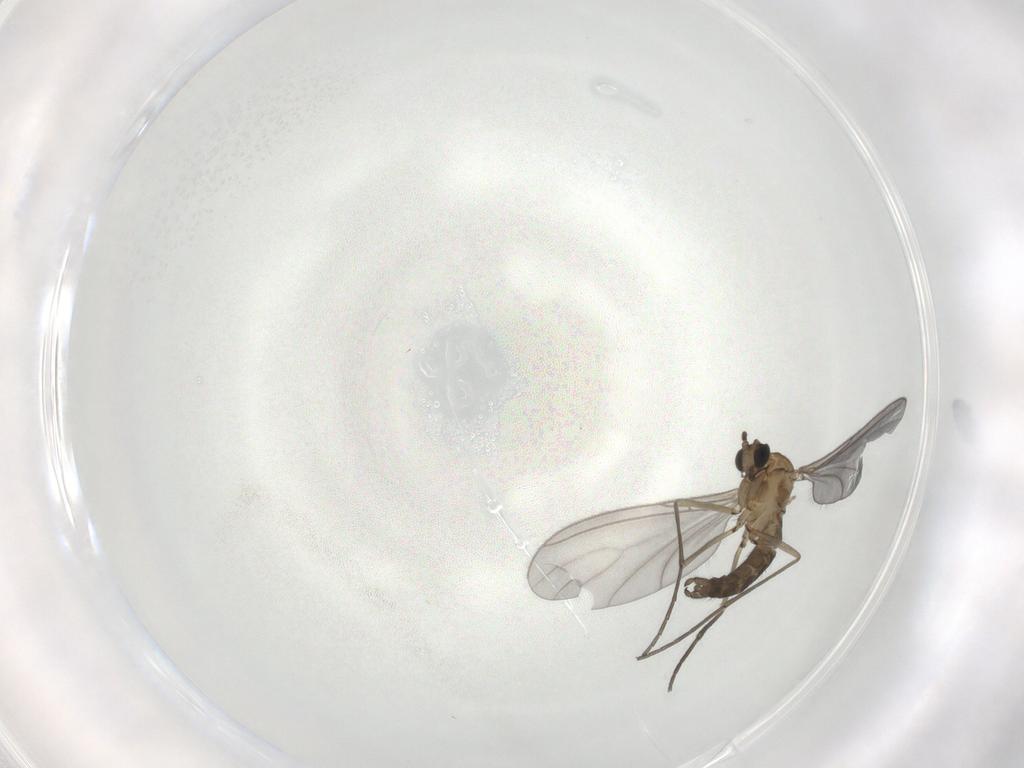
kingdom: Animalia
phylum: Arthropoda
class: Insecta
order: Diptera
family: Sciaridae
